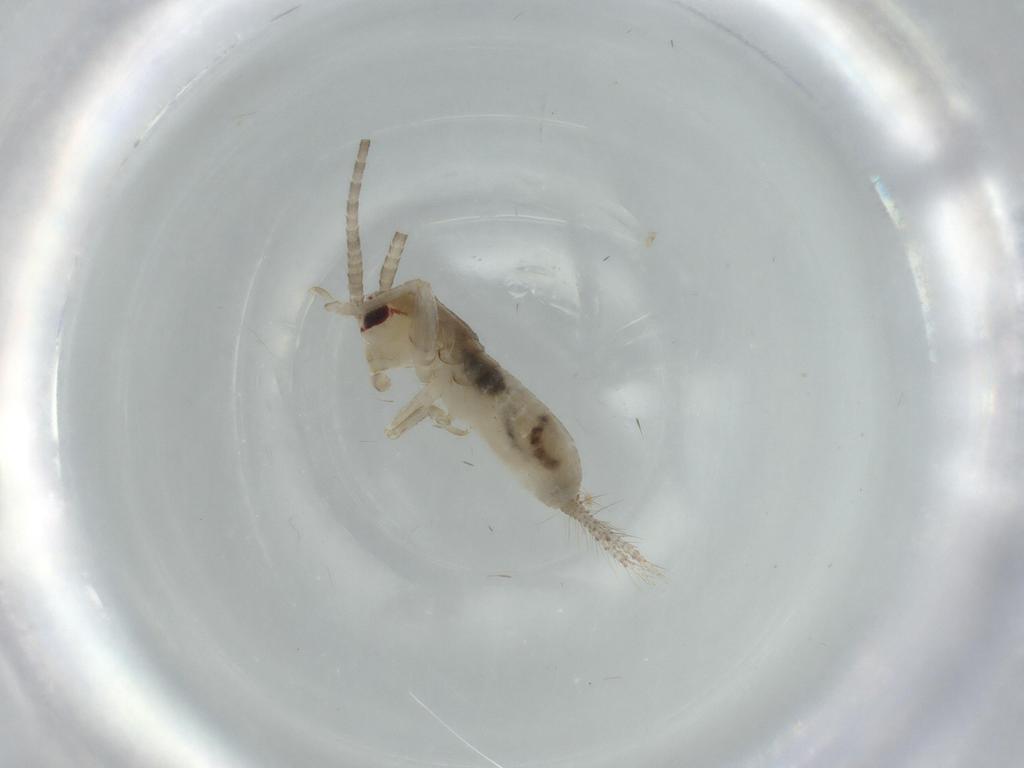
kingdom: Animalia
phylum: Arthropoda
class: Insecta
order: Orthoptera
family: Gryllidae
